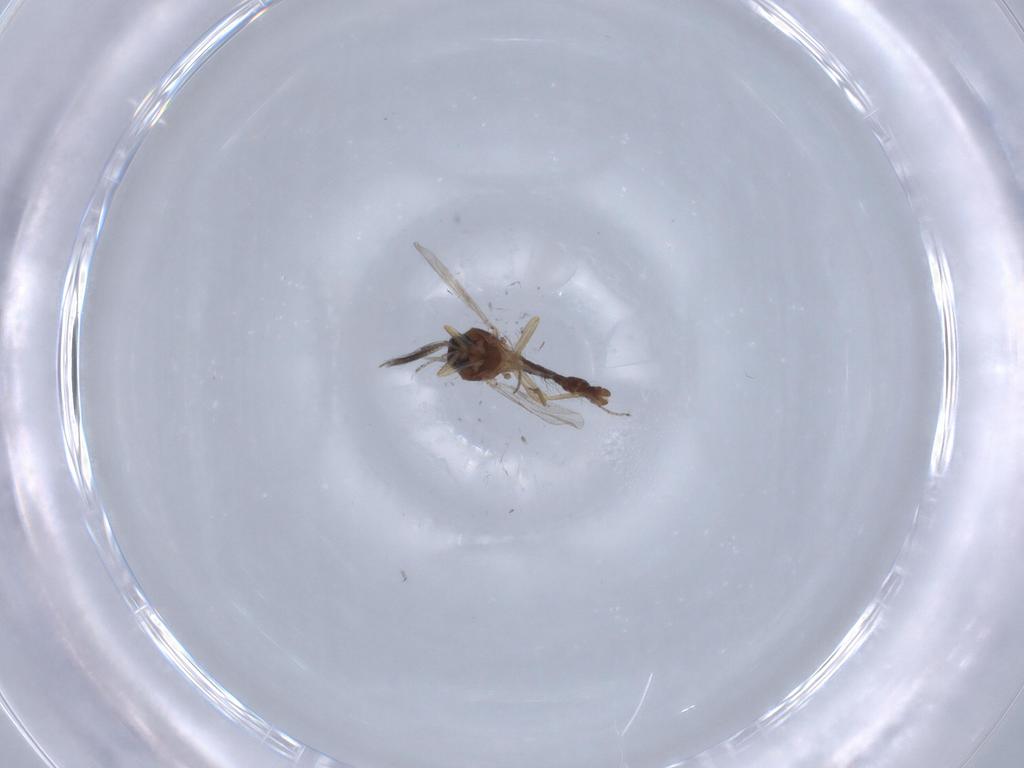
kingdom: Animalia
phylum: Arthropoda
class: Insecta
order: Diptera
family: Ceratopogonidae
